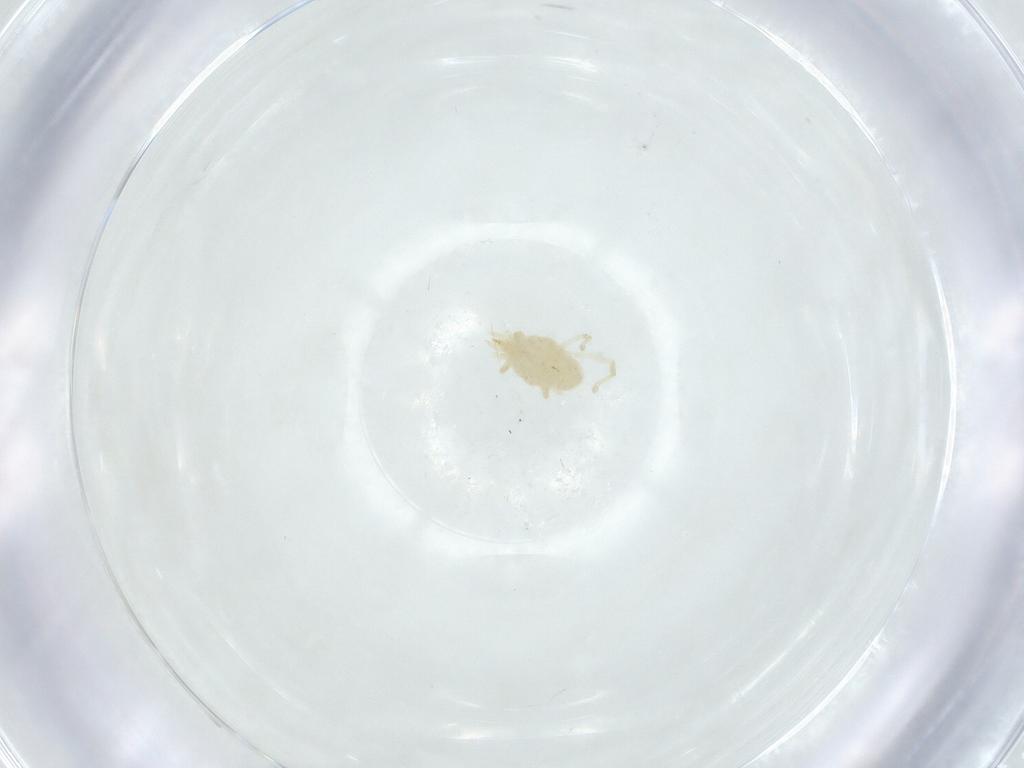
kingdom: Animalia
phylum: Arthropoda
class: Arachnida
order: Trombidiformes
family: Erythraeidae
